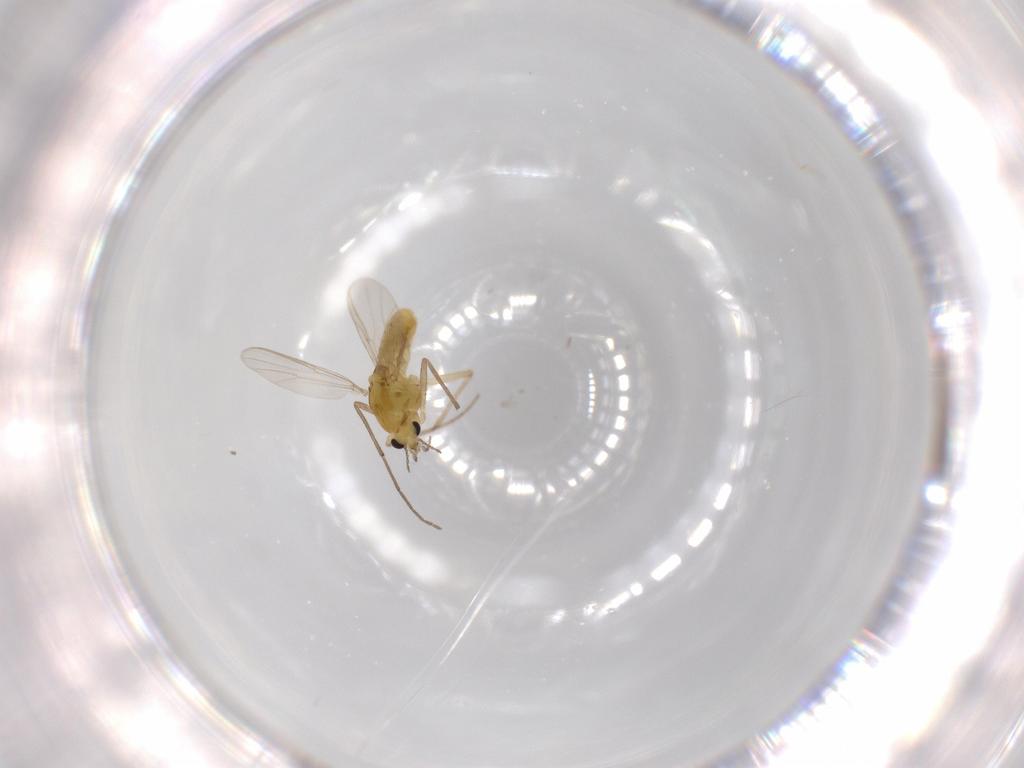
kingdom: Animalia
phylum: Arthropoda
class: Insecta
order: Diptera
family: Chironomidae
